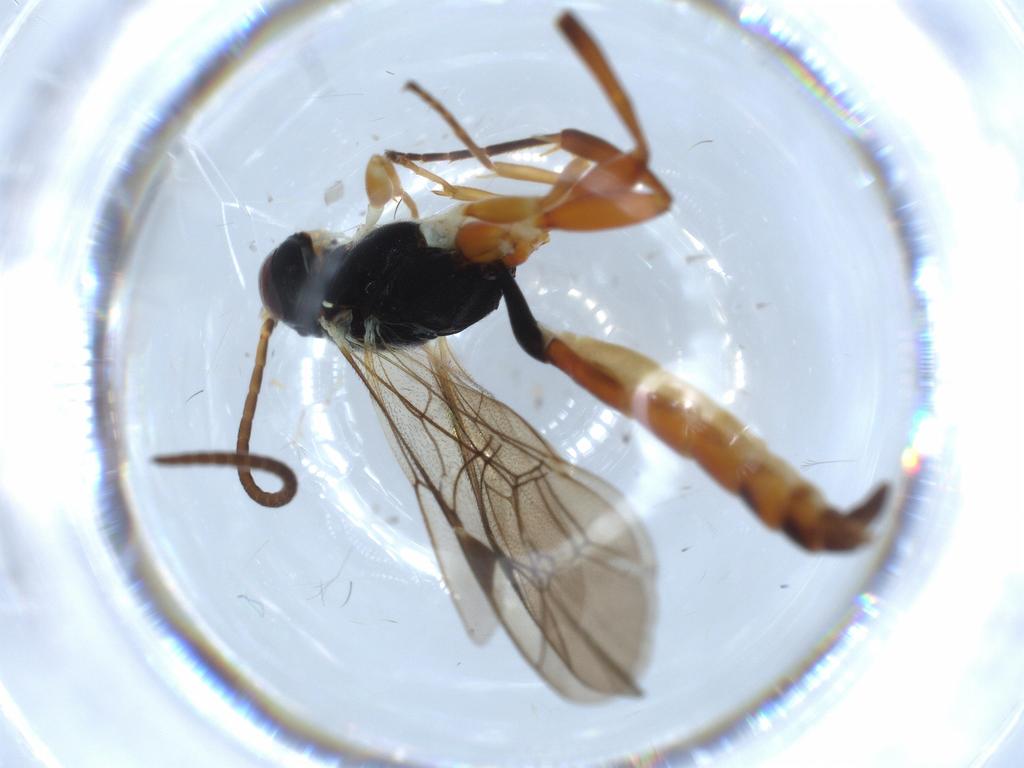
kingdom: Animalia
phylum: Arthropoda
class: Insecta
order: Hymenoptera
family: Ichneumonidae
